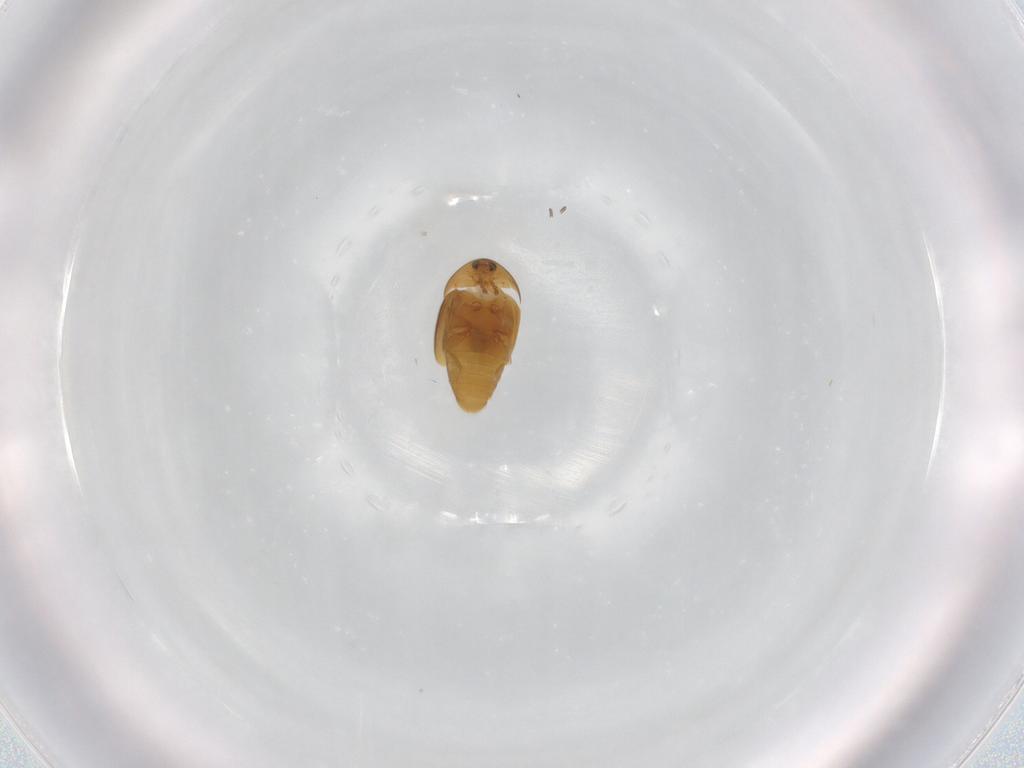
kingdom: Animalia
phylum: Arthropoda
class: Insecta
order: Coleoptera
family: Corylophidae
